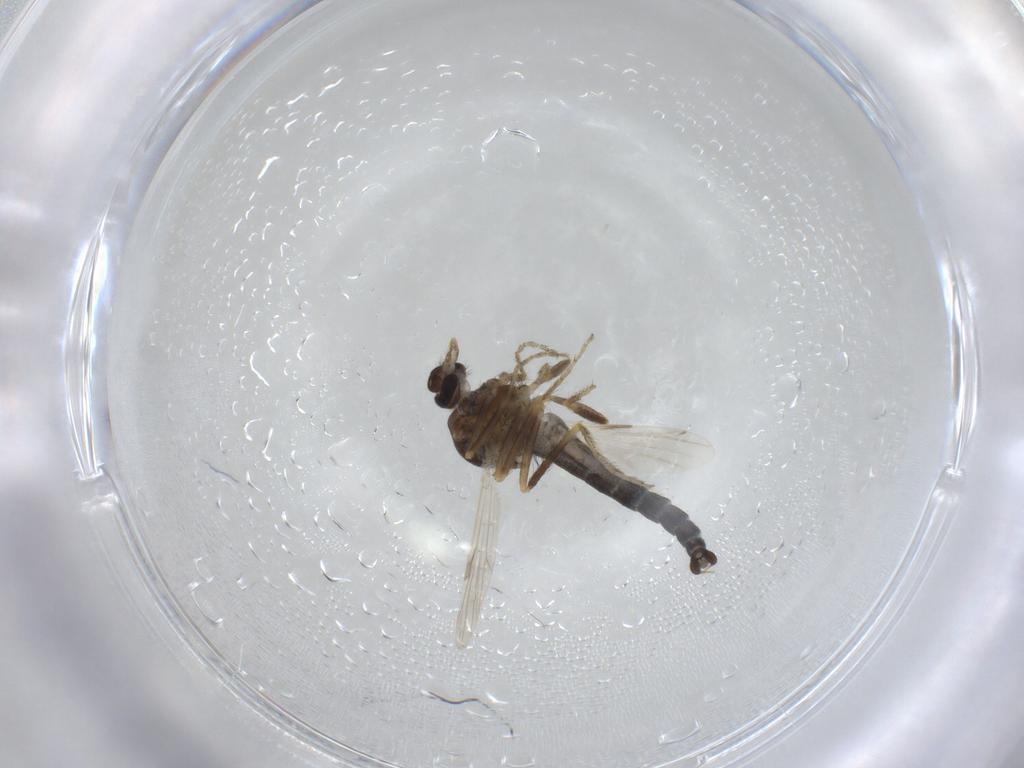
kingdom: Animalia
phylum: Arthropoda
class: Insecta
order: Diptera
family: Ceratopogonidae
